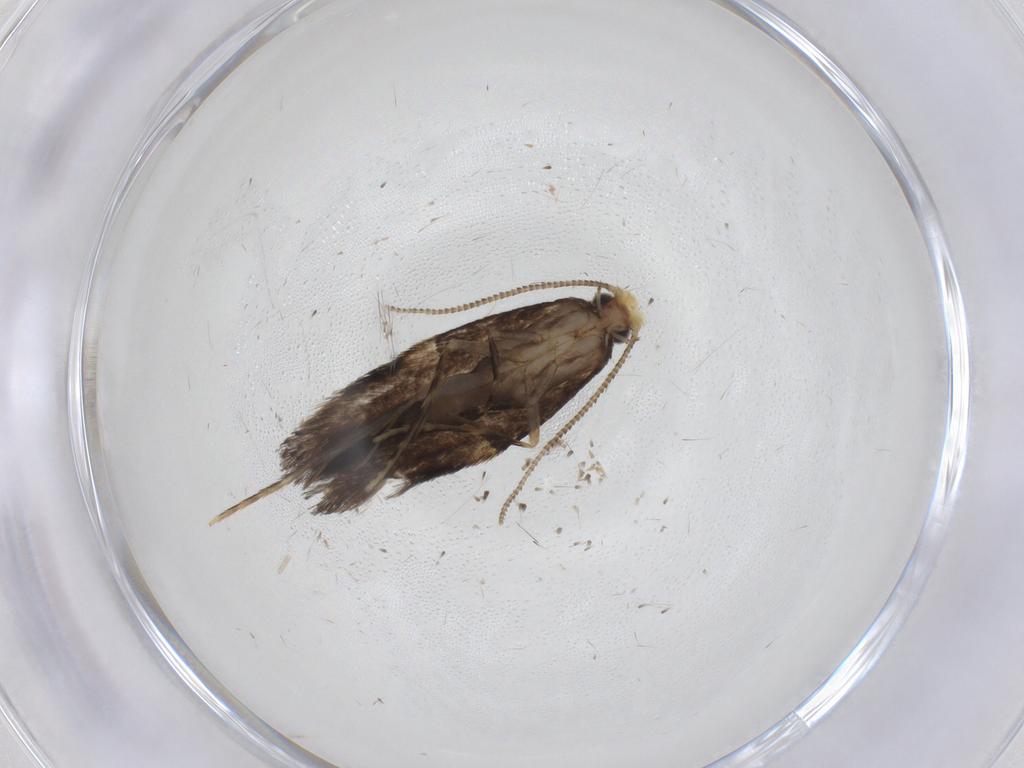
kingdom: Animalia
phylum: Arthropoda
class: Insecta
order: Lepidoptera
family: Tineidae
